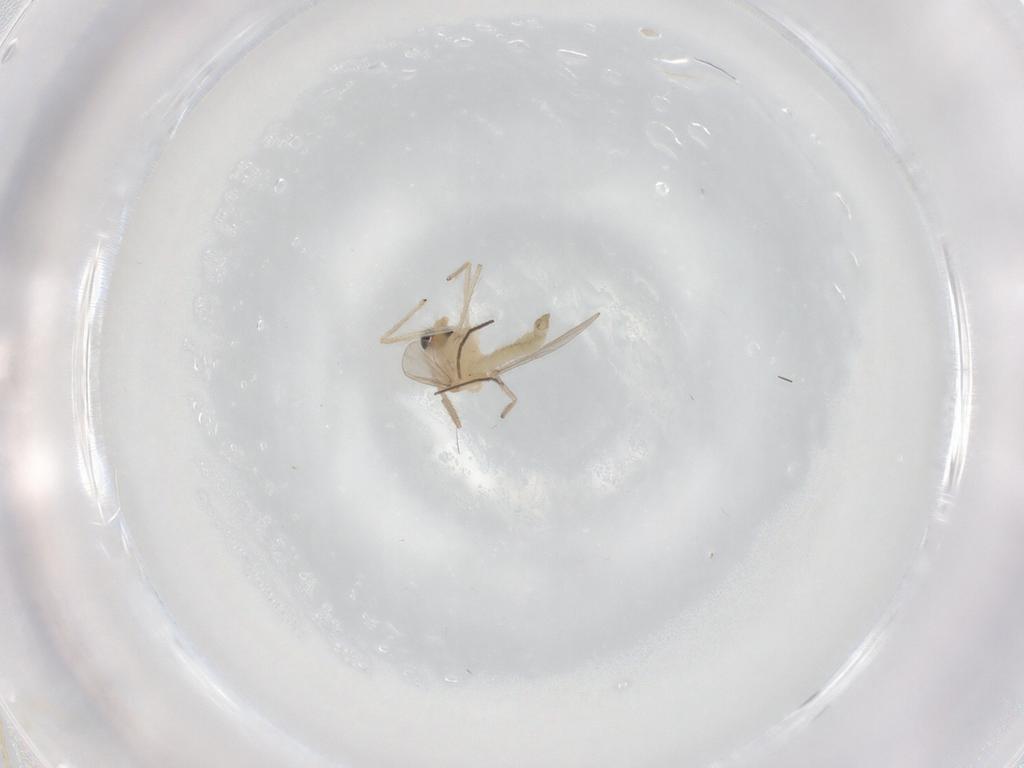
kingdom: Animalia
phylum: Arthropoda
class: Insecta
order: Diptera
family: Chironomidae
